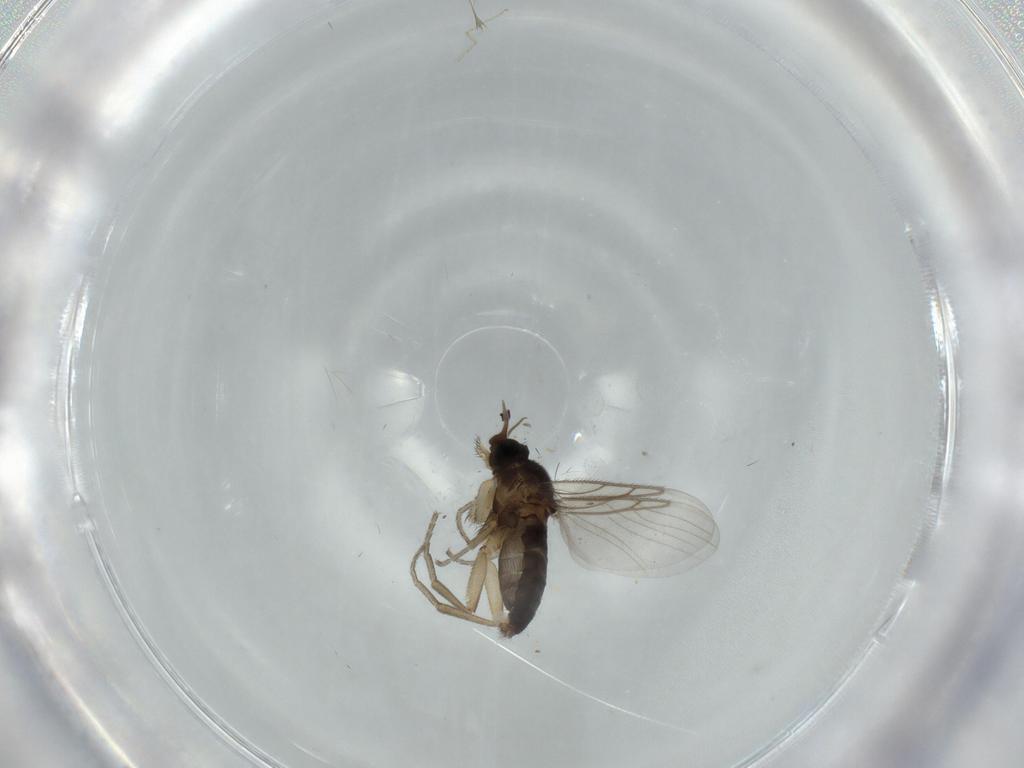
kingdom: Animalia
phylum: Arthropoda
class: Insecta
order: Diptera
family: Cecidomyiidae
